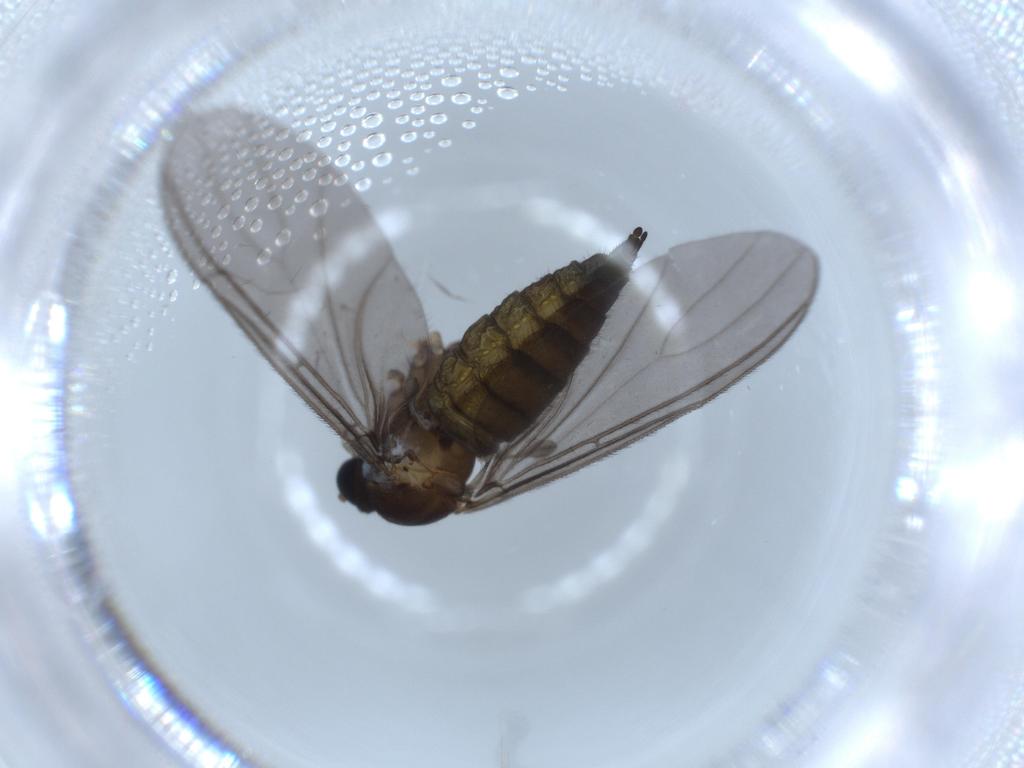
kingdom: Animalia
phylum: Arthropoda
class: Insecta
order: Diptera
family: Sciaridae
